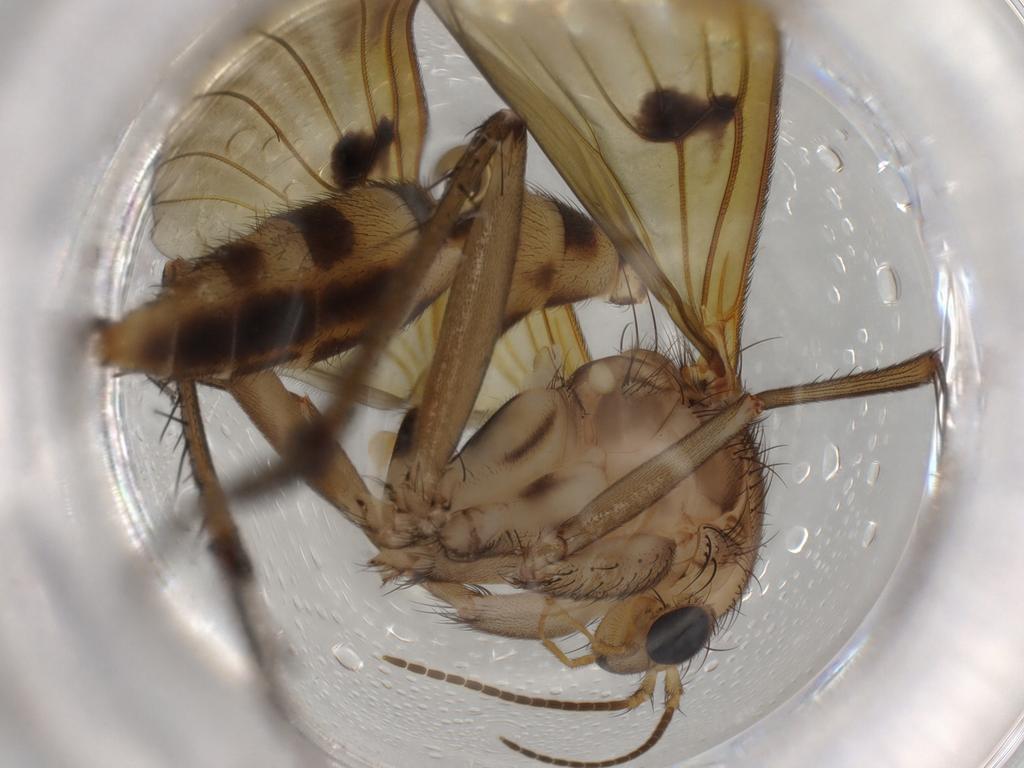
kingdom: Animalia
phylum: Arthropoda
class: Insecta
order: Diptera
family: Mycetophilidae
